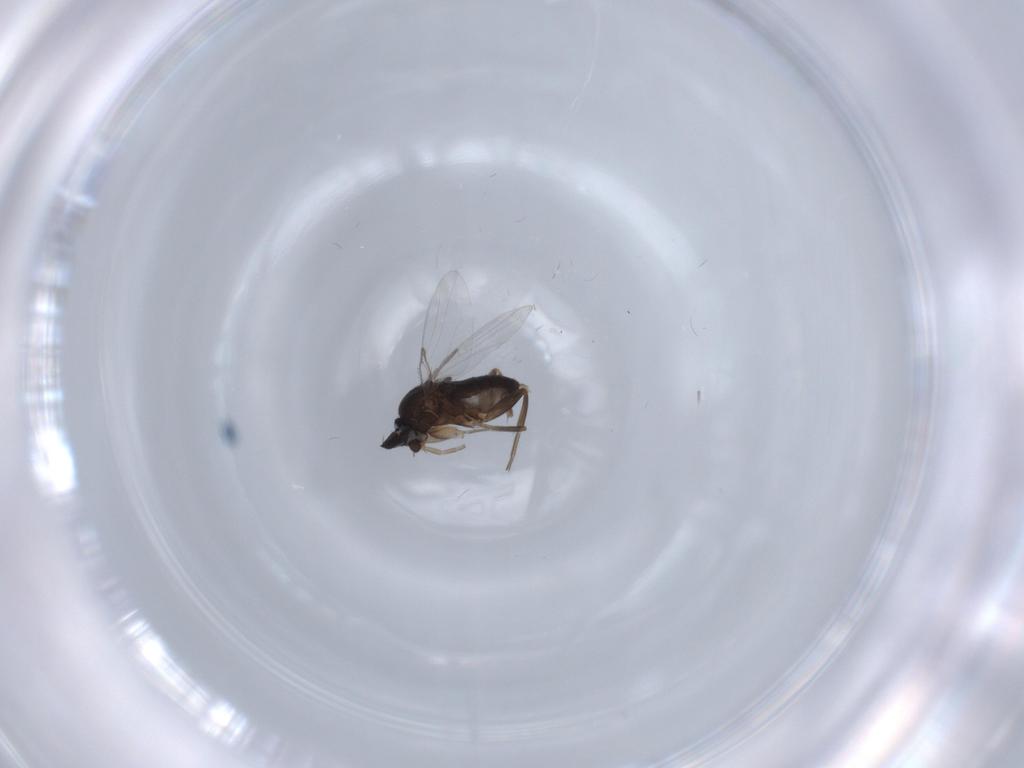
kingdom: Animalia
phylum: Arthropoda
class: Insecta
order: Diptera
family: Phoridae
